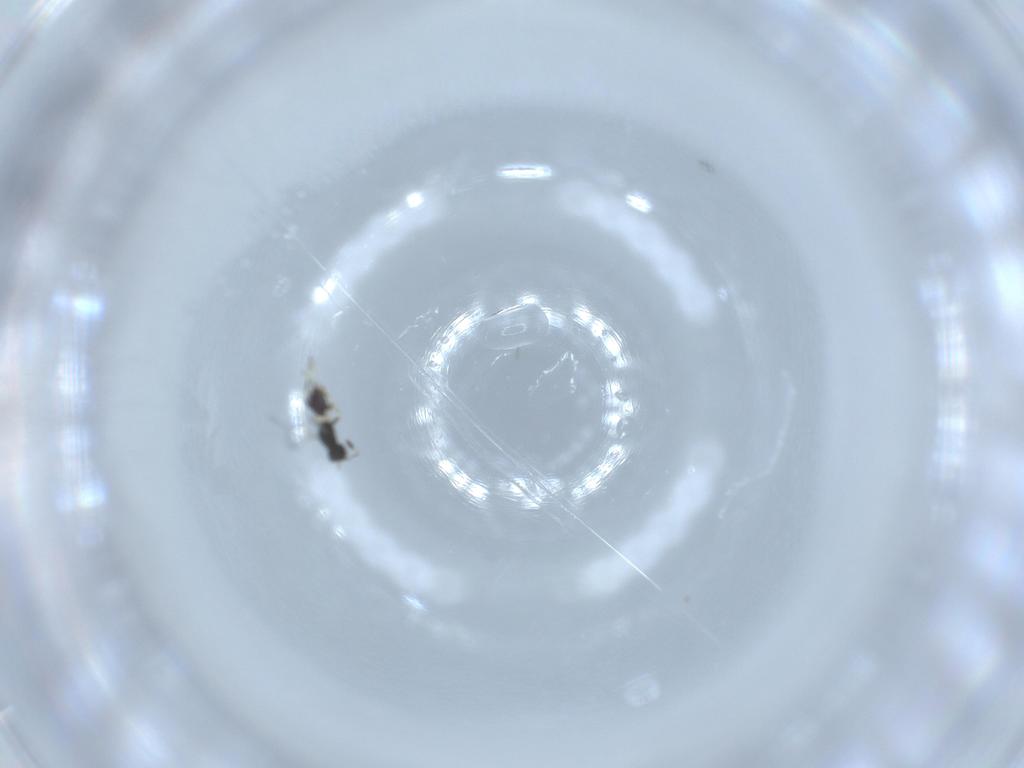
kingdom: Animalia
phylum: Arthropoda
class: Insecta
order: Hymenoptera
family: Mymaridae
